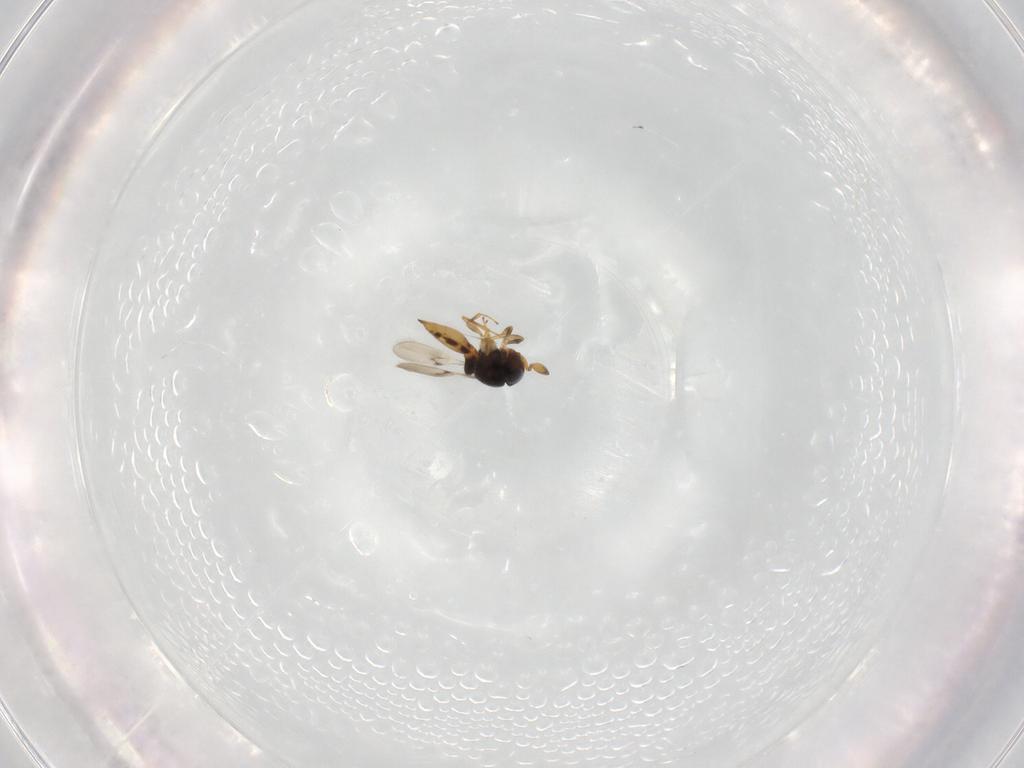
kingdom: Animalia
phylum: Arthropoda
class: Insecta
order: Hymenoptera
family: Scelionidae
